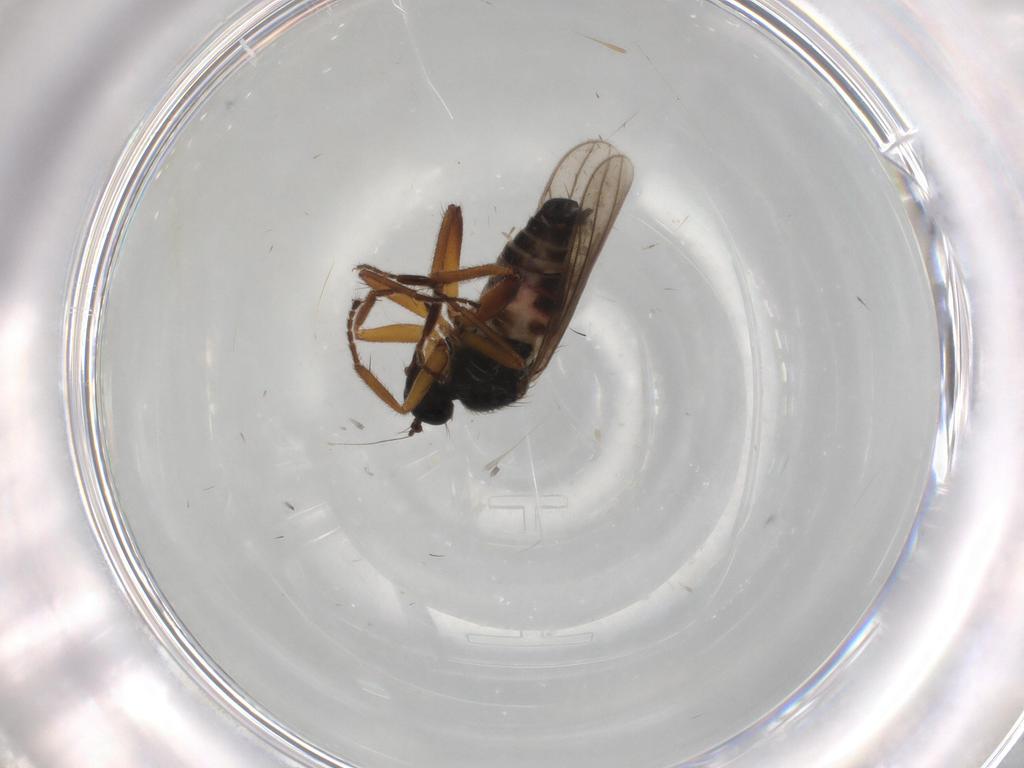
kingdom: Animalia
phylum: Arthropoda
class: Insecta
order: Diptera
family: Hybotidae
